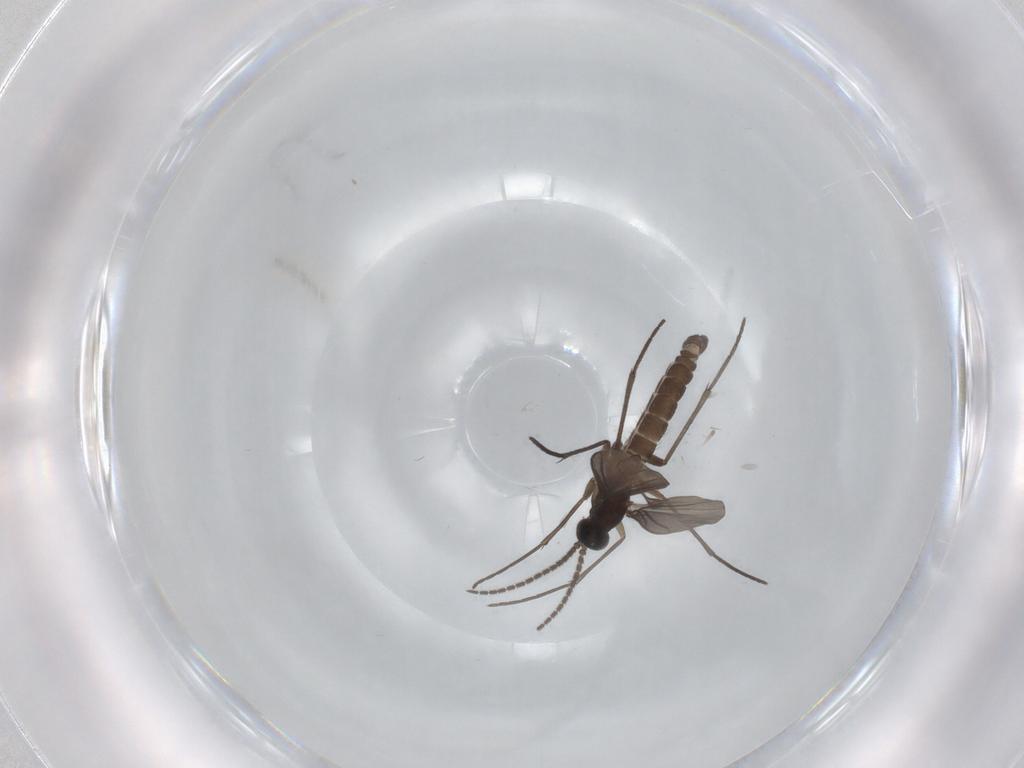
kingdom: Animalia
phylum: Arthropoda
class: Insecta
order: Diptera
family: Sciaridae
